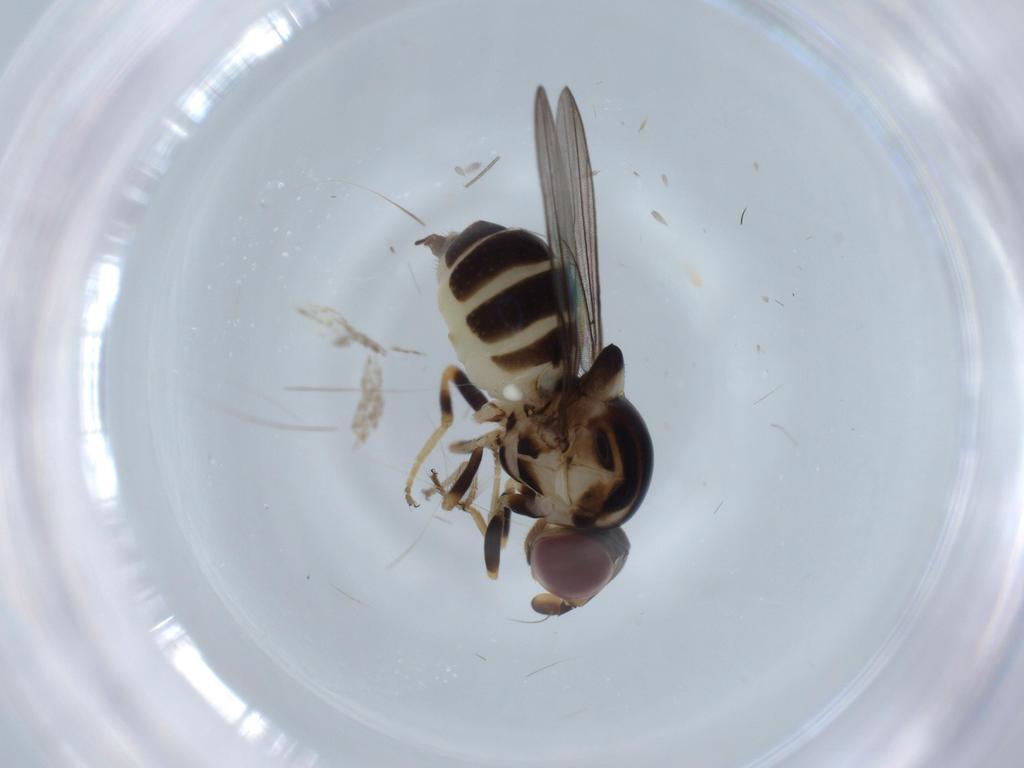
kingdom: Animalia
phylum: Arthropoda
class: Insecta
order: Diptera
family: Chloropidae
